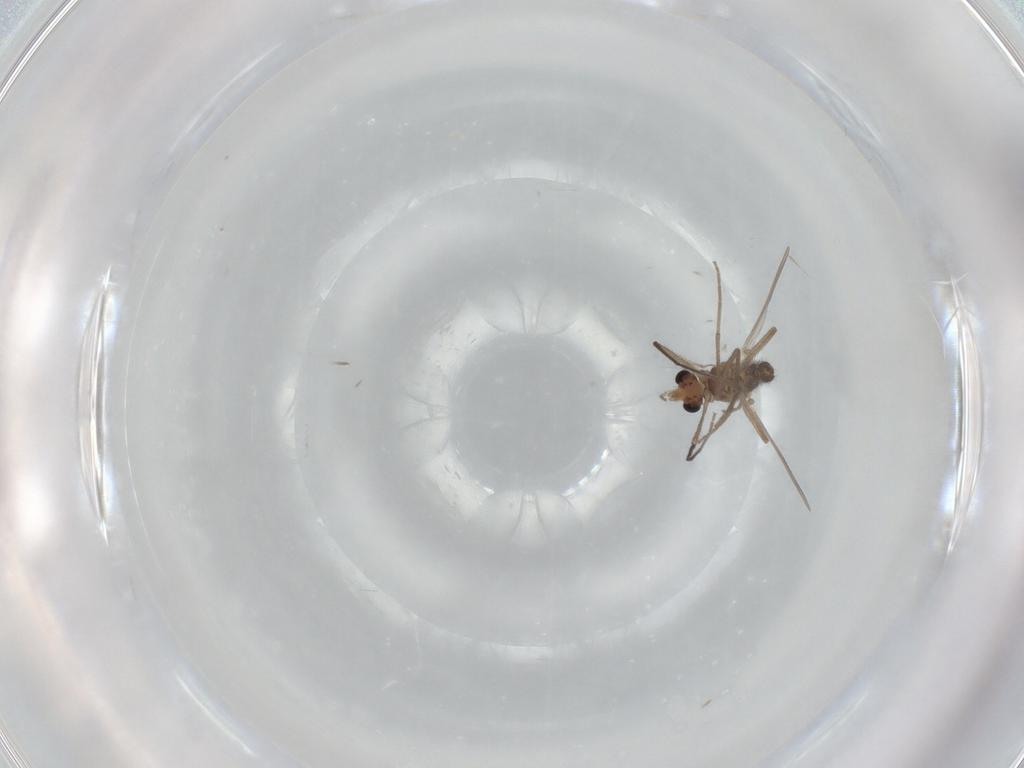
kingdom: Animalia
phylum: Arthropoda
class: Insecta
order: Diptera
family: Chironomidae
